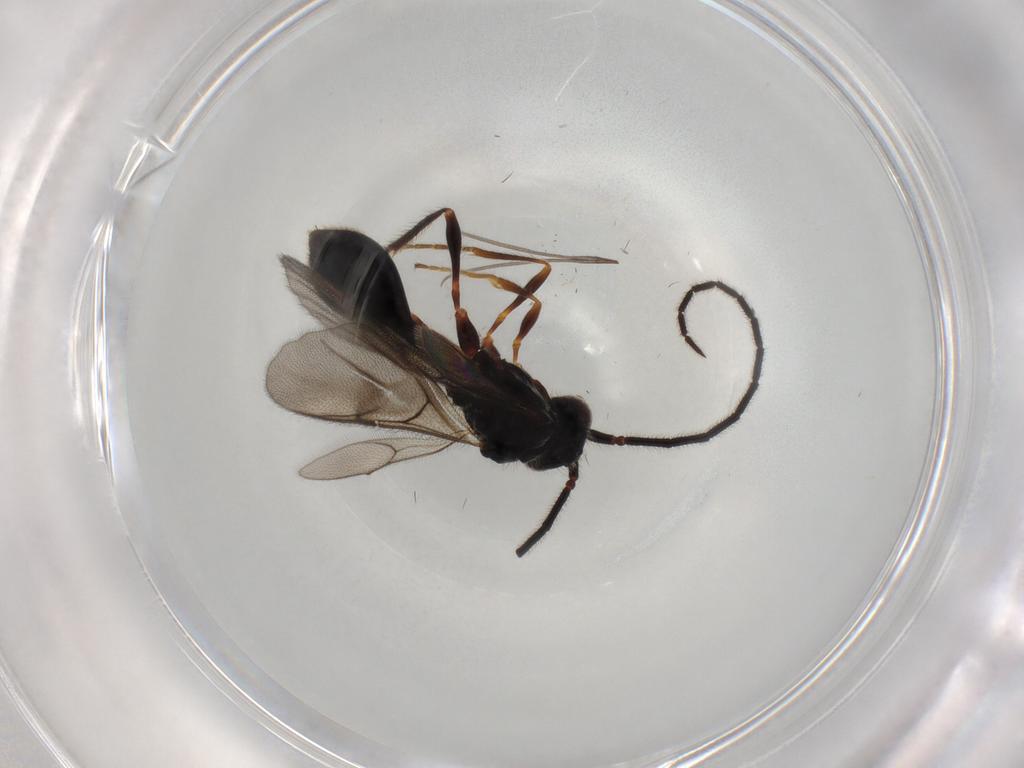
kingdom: Animalia
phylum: Arthropoda
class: Insecta
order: Hymenoptera
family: Diapriidae
